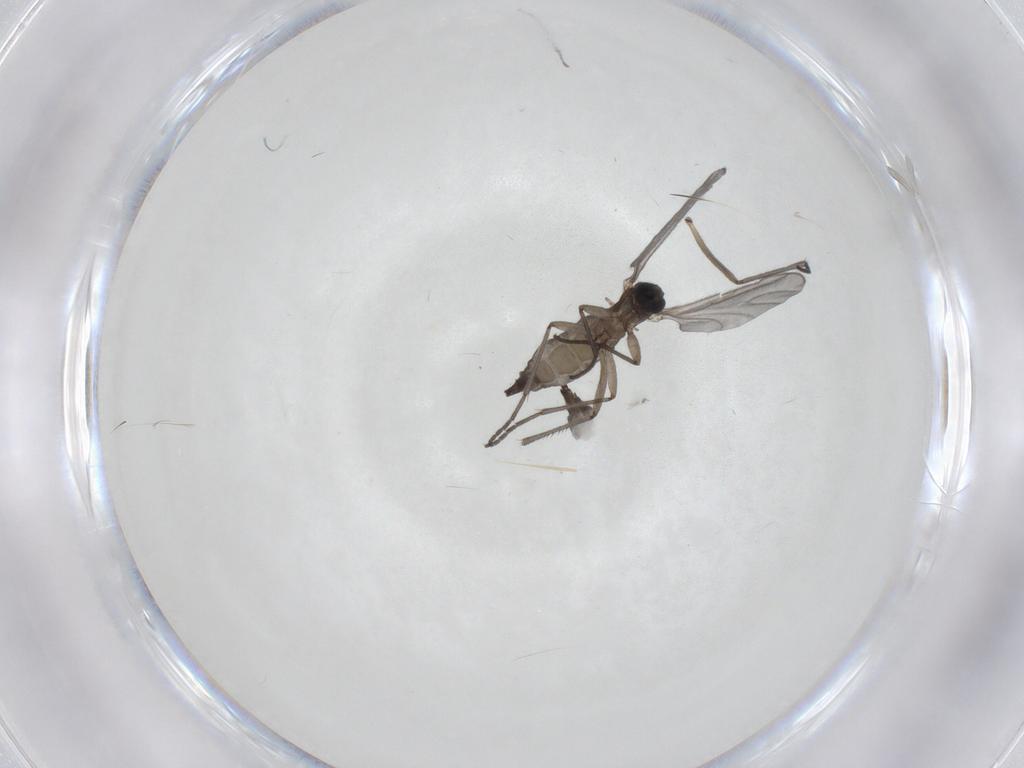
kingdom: Animalia
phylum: Arthropoda
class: Insecta
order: Diptera
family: Sciaridae
